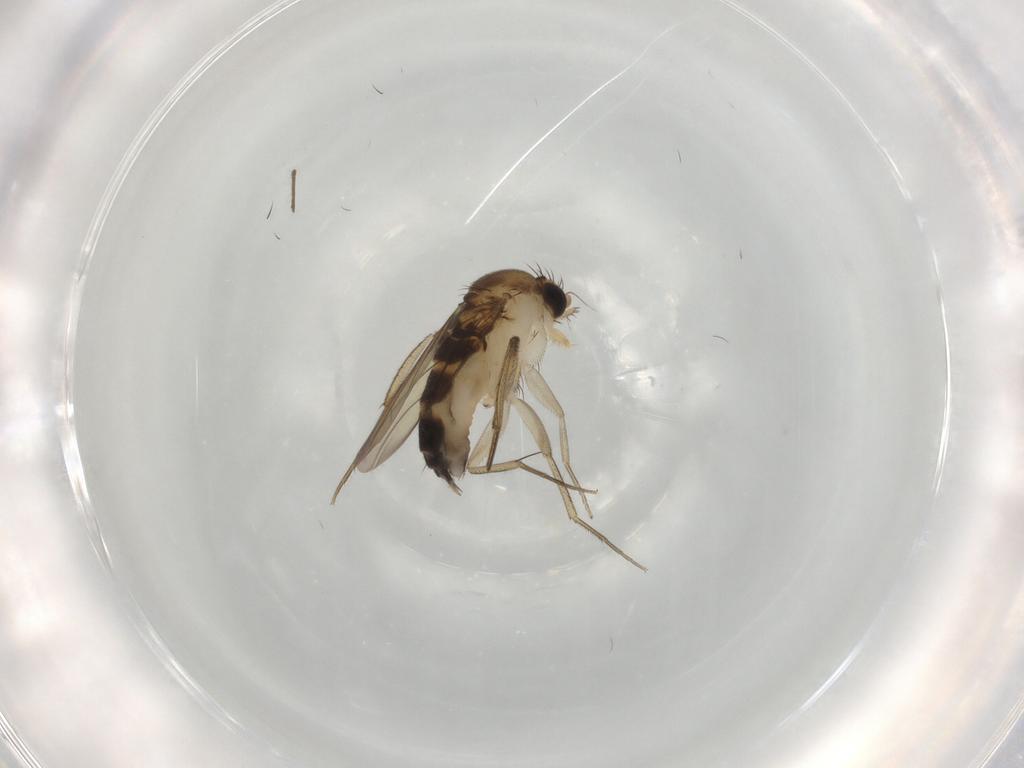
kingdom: Animalia
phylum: Arthropoda
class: Insecta
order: Diptera
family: Phoridae
